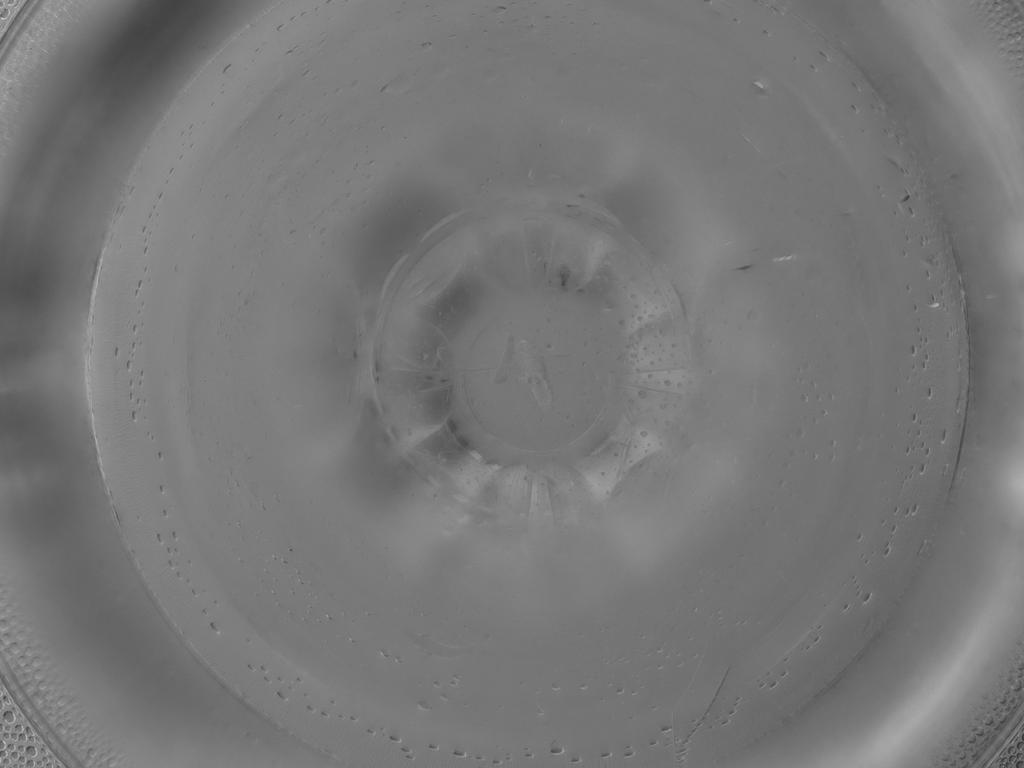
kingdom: Animalia
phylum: Arthropoda
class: Insecta
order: Diptera
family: Cecidomyiidae
